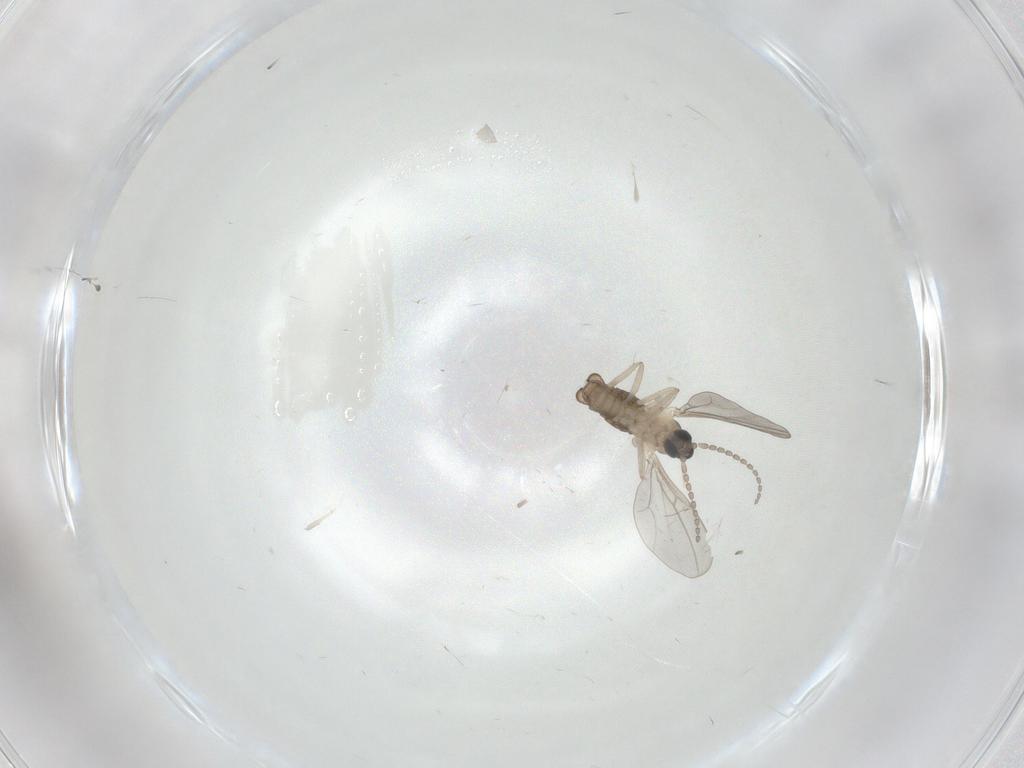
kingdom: Animalia
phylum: Arthropoda
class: Insecta
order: Diptera
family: Cecidomyiidae
